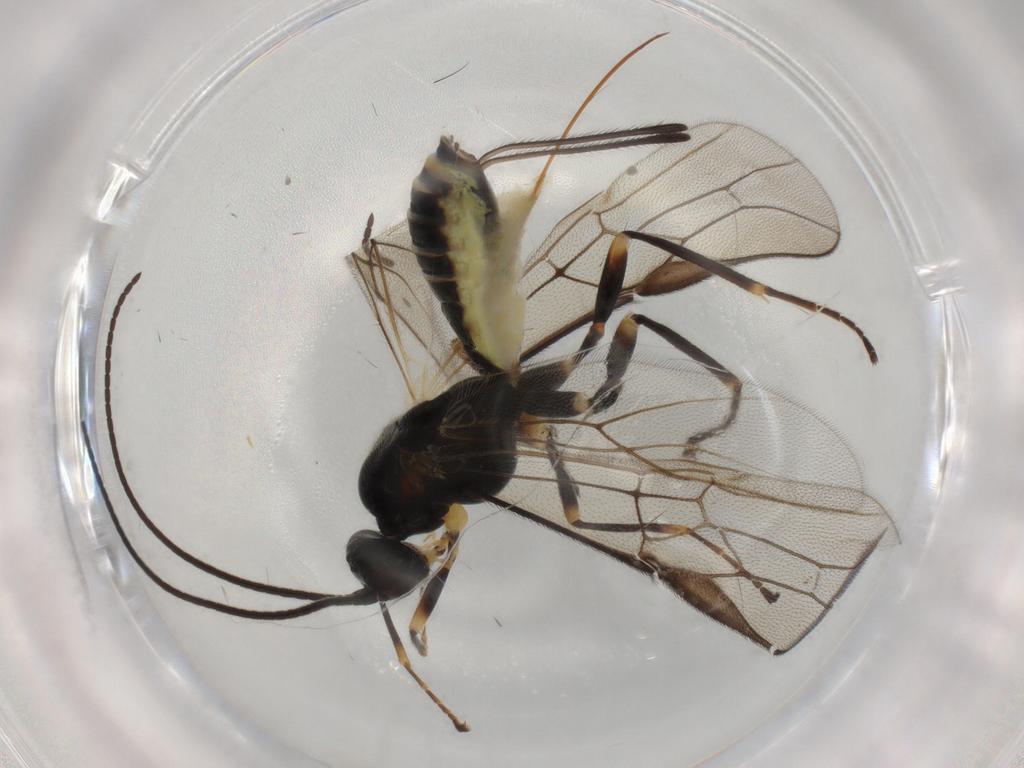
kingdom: Animalia
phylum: Arthropoda
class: Insecta
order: Hymenoptera
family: Braconidae
